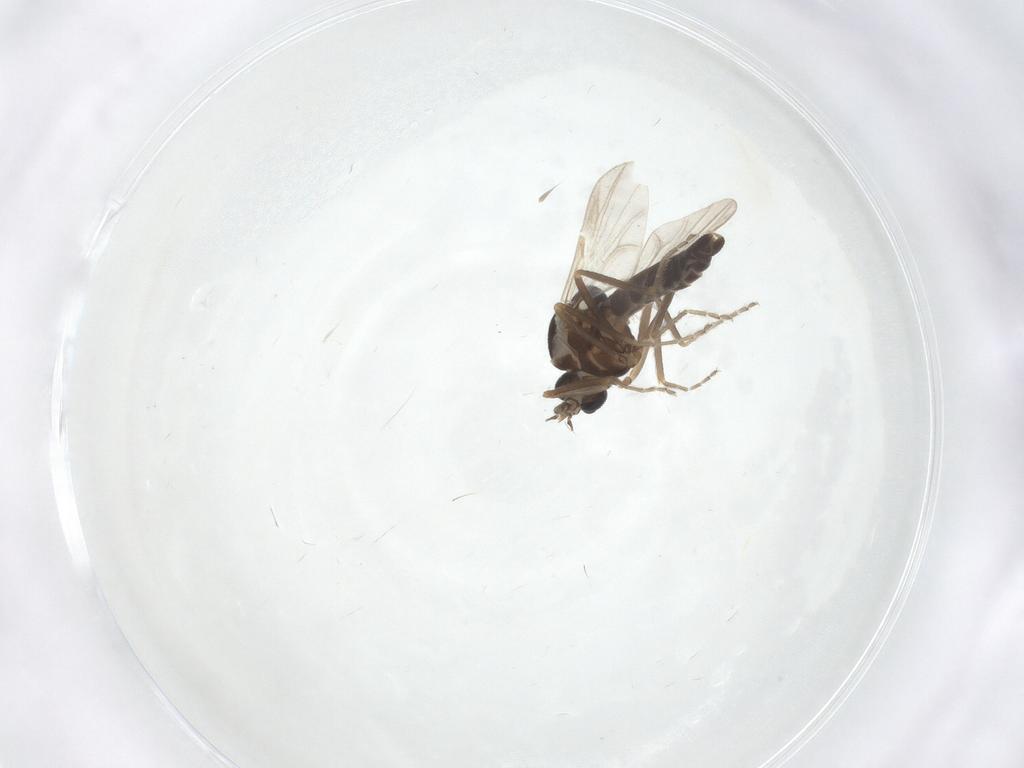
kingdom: Animalia
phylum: Arthropoda
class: Insecta
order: Diptera
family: Ceratopogonidae
